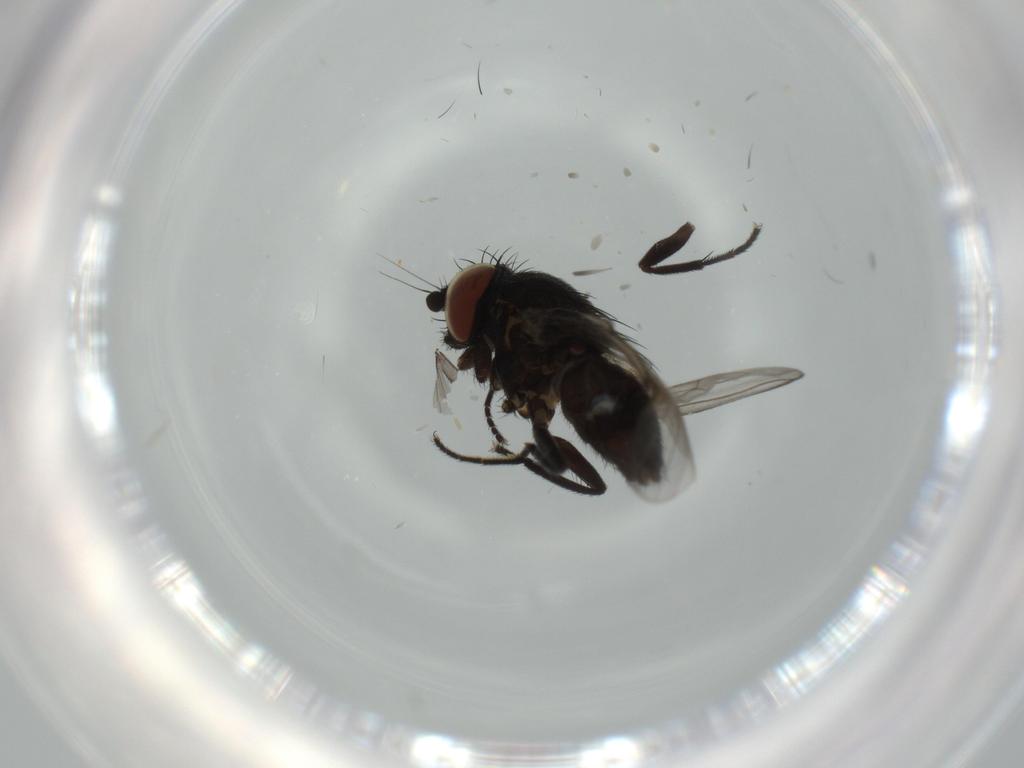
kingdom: Animalia
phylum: Arthropoda
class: Insecta
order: Diptera
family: Milichiidae
